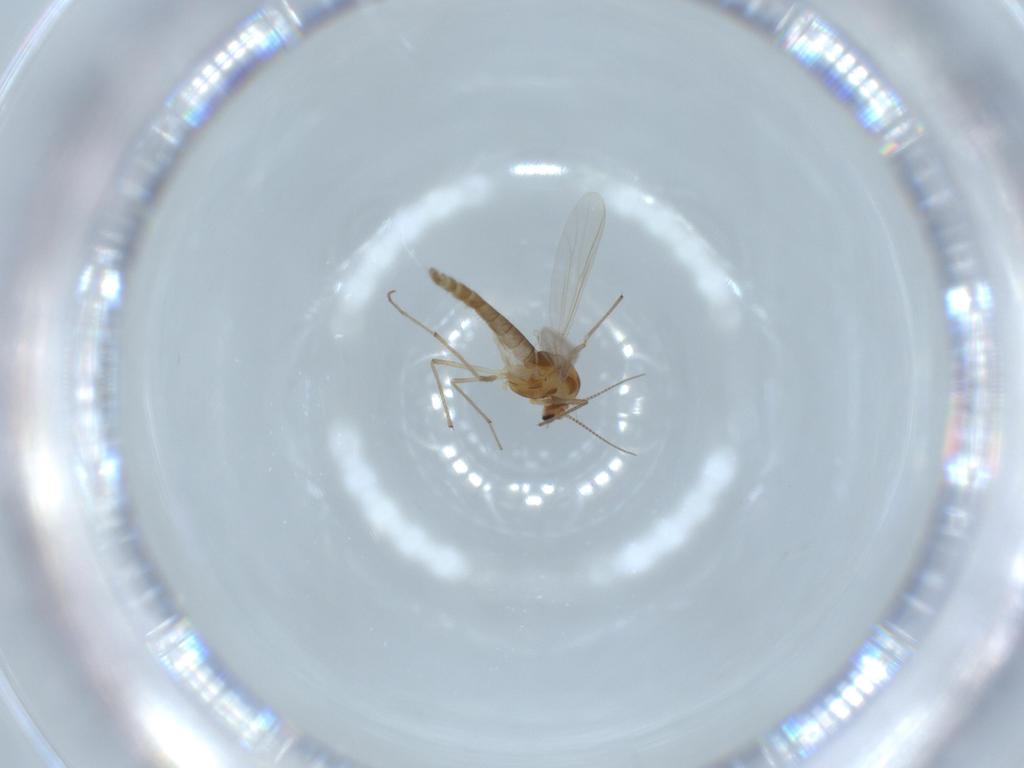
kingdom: Animalia
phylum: Arthropoda
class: Insecta
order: Diptera
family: Chironomidae
